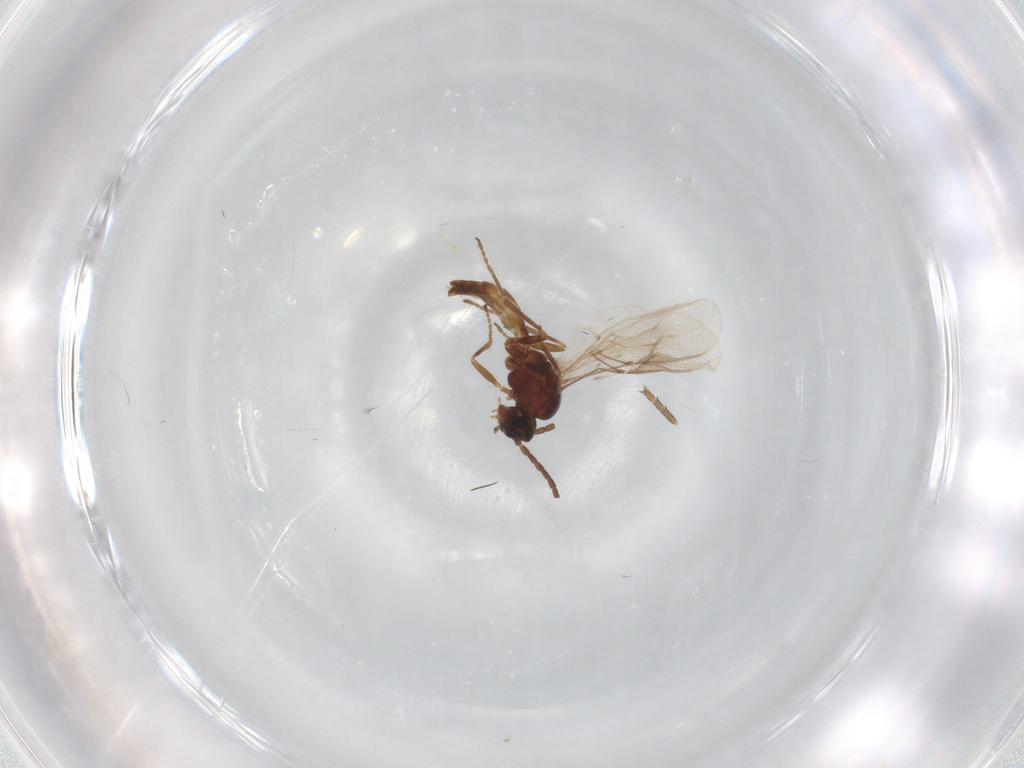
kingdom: Animalia
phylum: Arthropoda
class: Insecta
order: Hymenoptera
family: Braconidae
